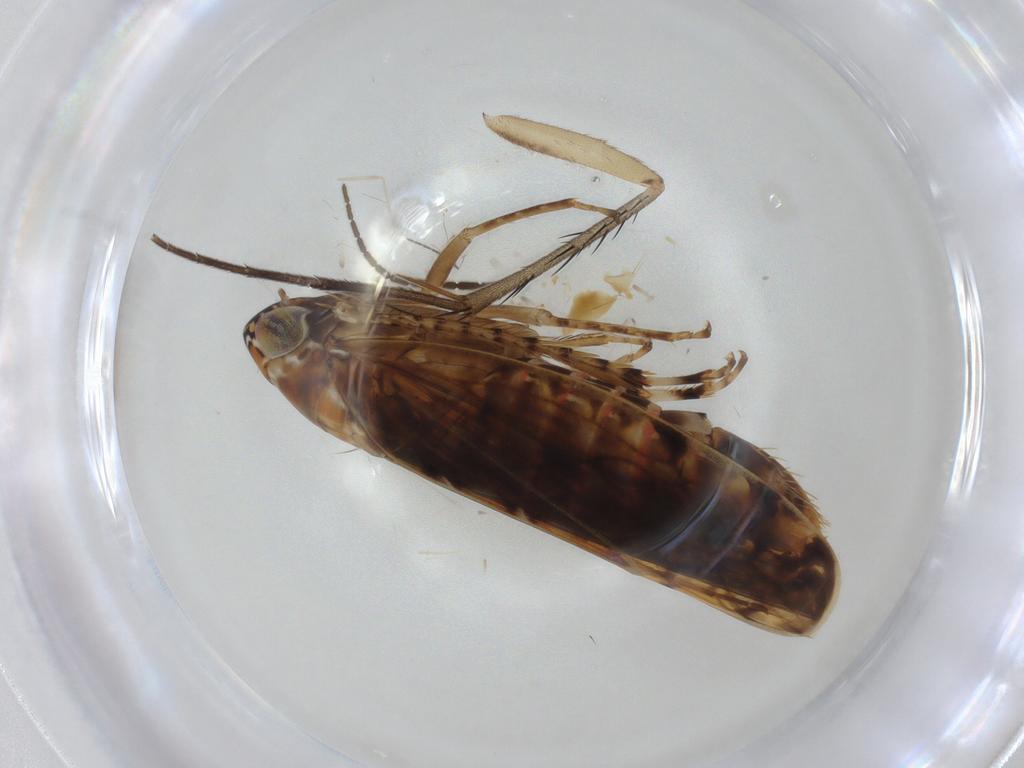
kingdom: Animalia
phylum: Arthropoda
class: Insecta
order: Hemiptera
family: Cicadellidae
